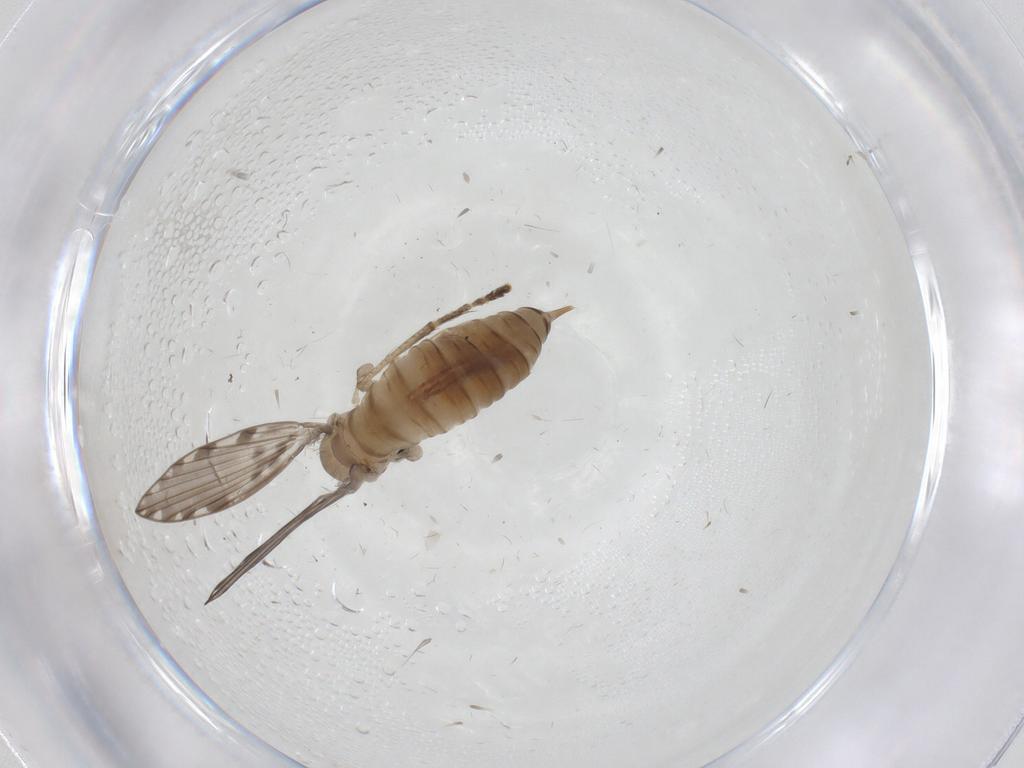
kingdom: Animalia
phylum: Arthropoda
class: Insecta
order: Diptera
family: Psychodidae
